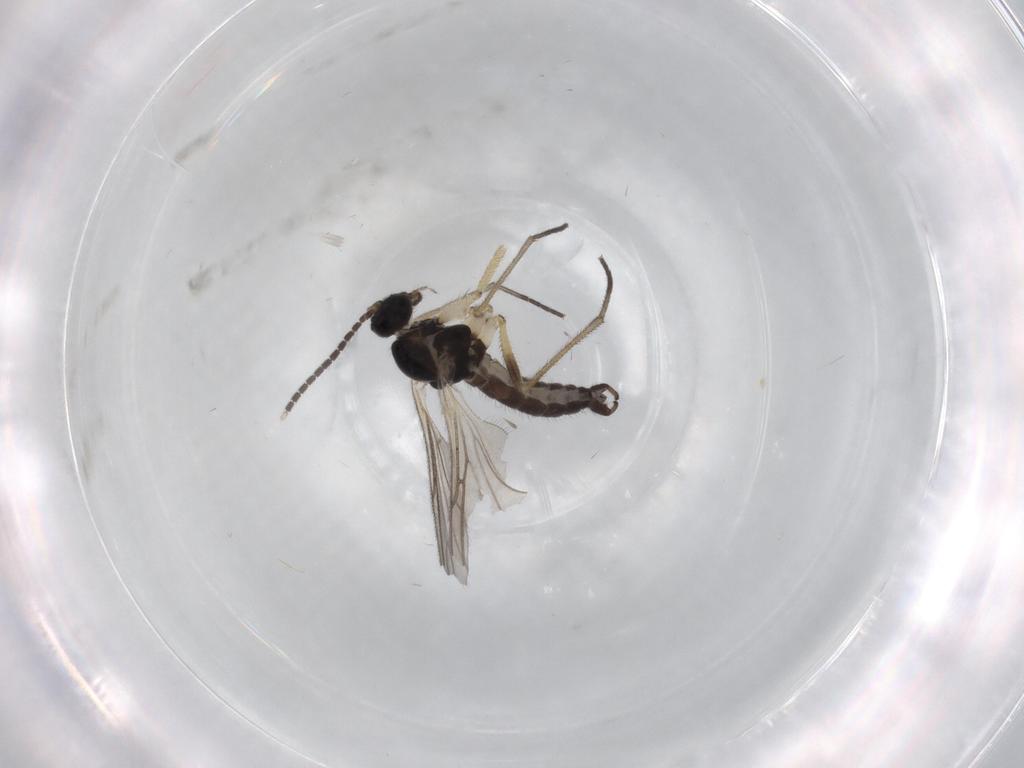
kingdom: Animalia
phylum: Arthropoda
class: Insecta
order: Diptera
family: Sciaridae
